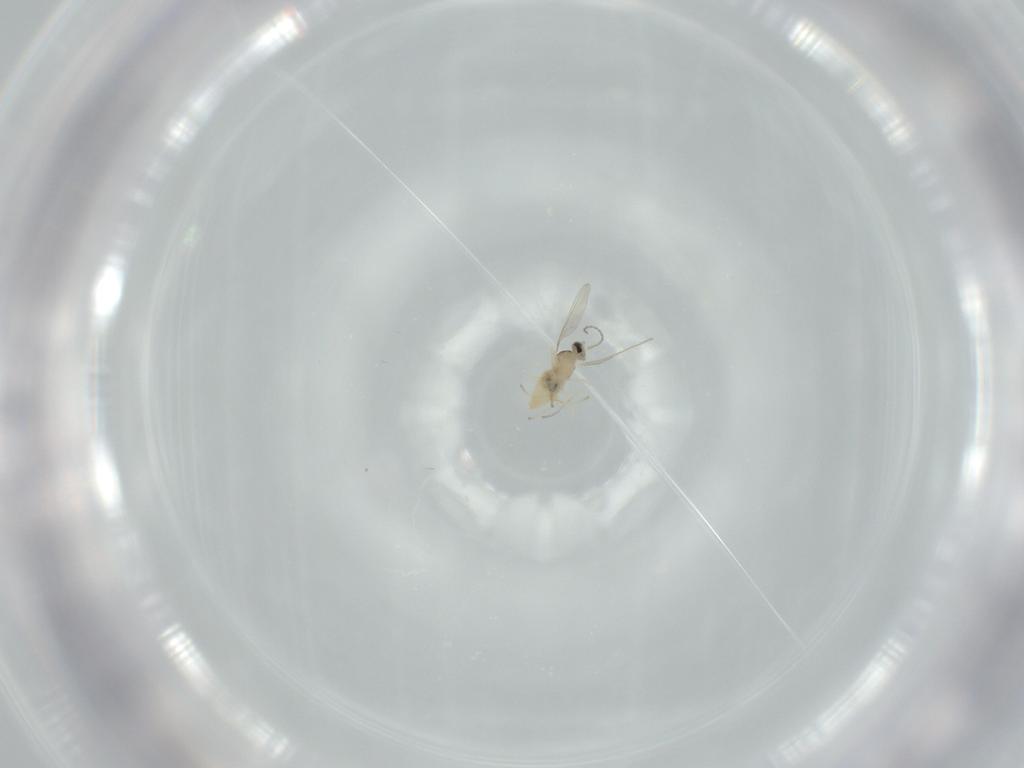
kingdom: Animalia
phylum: Arthropoda
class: Insecta
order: Diptera
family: Cecidomyiidae
